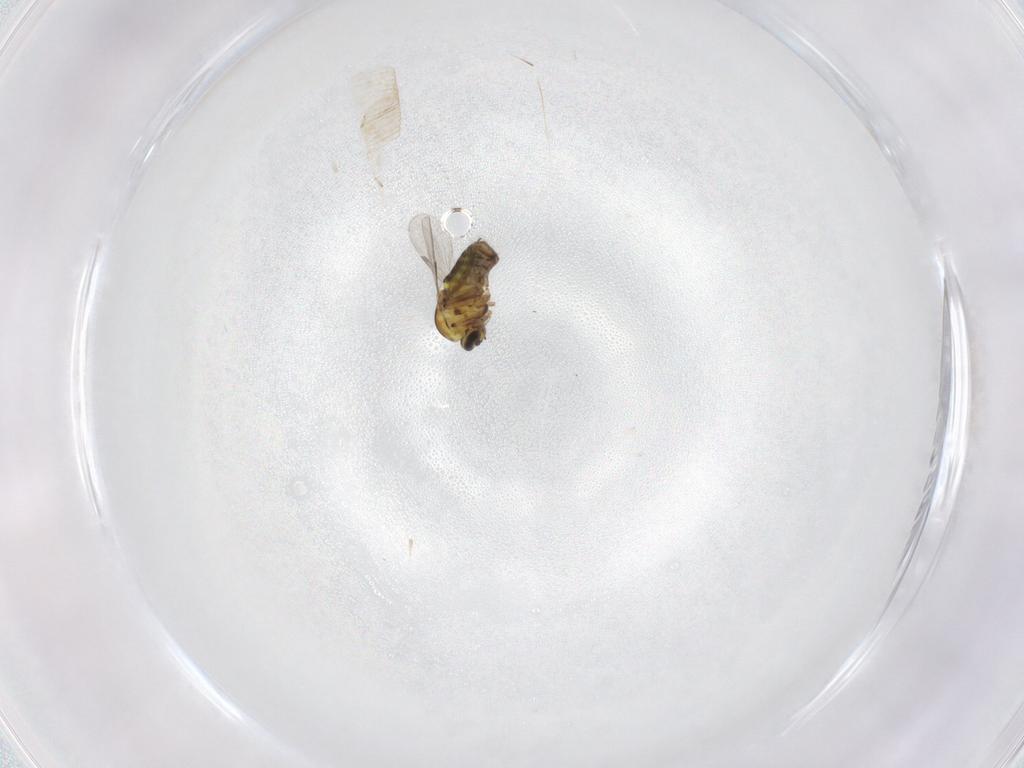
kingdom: Animalia
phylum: Arthropoda
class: Insecta
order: Diptera
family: Ceratopogonidae
